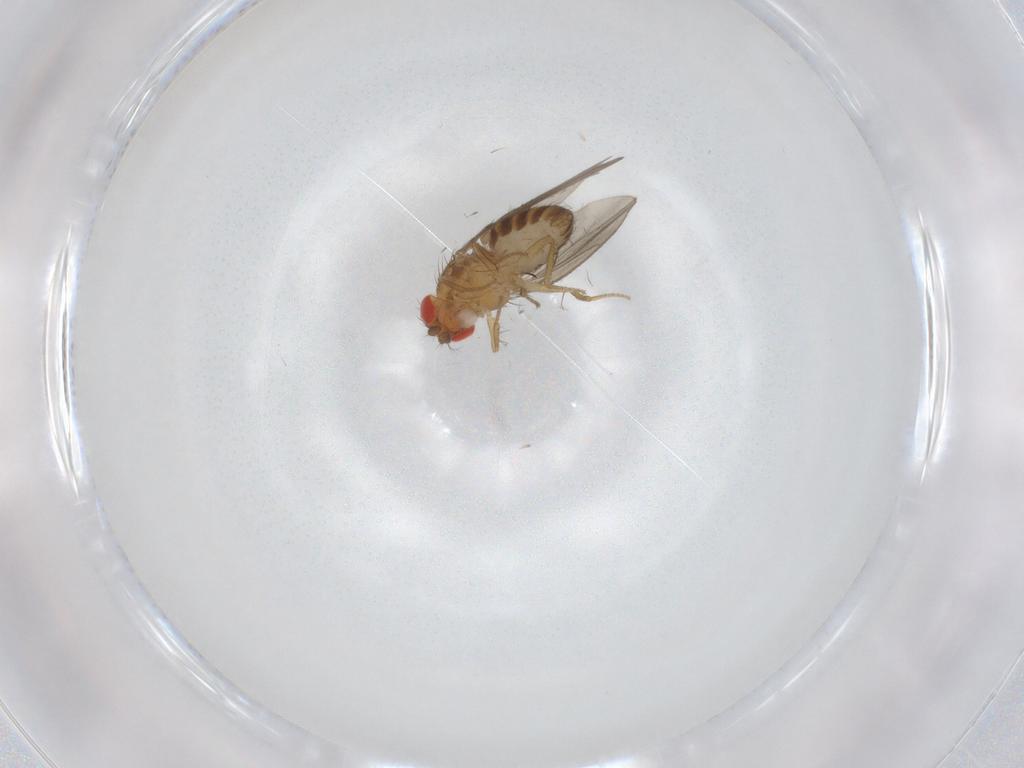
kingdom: Animalia
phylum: Arthropoda
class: Insecta
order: Diptera
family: Drosophilidae
